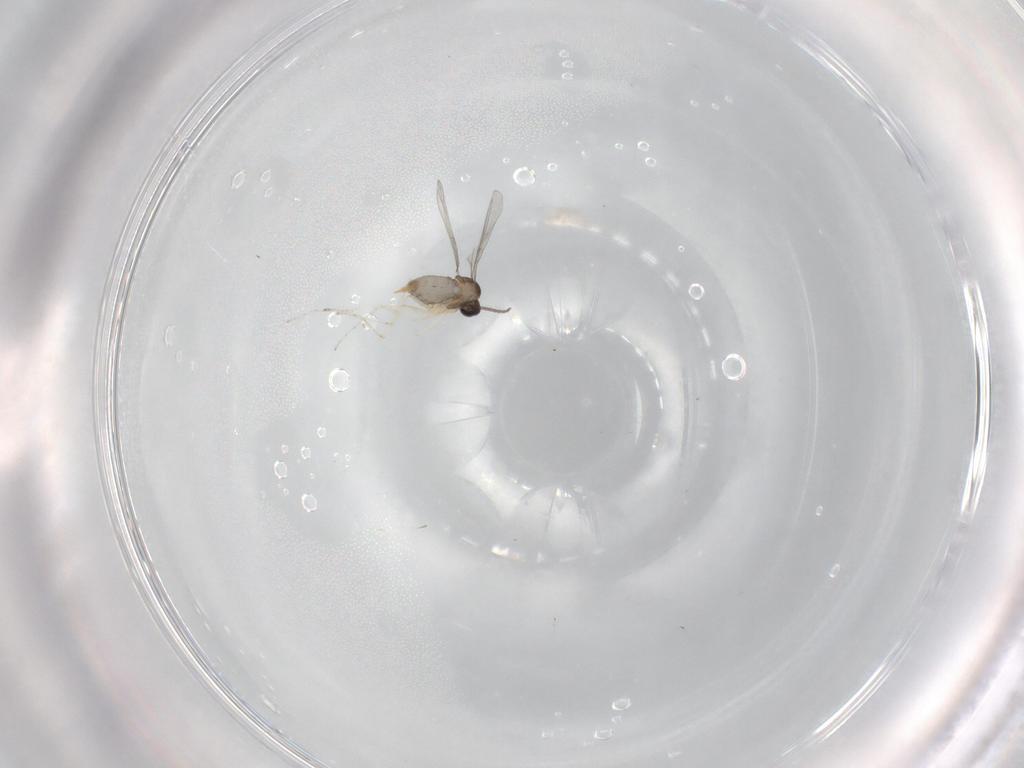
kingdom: Animalia
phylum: Arthropoda
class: Insecta
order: Diptera
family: Cecidomyiidae
